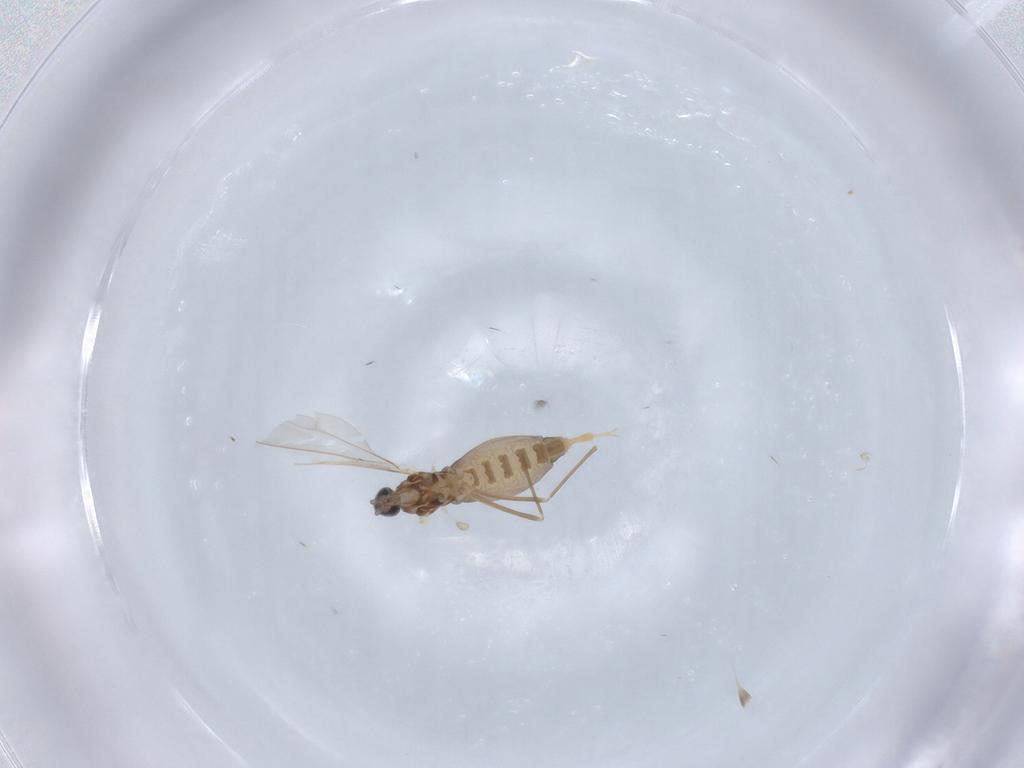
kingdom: Animalia
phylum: Arthropoda
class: Insecta
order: Diptera
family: Cecidomyiidae
